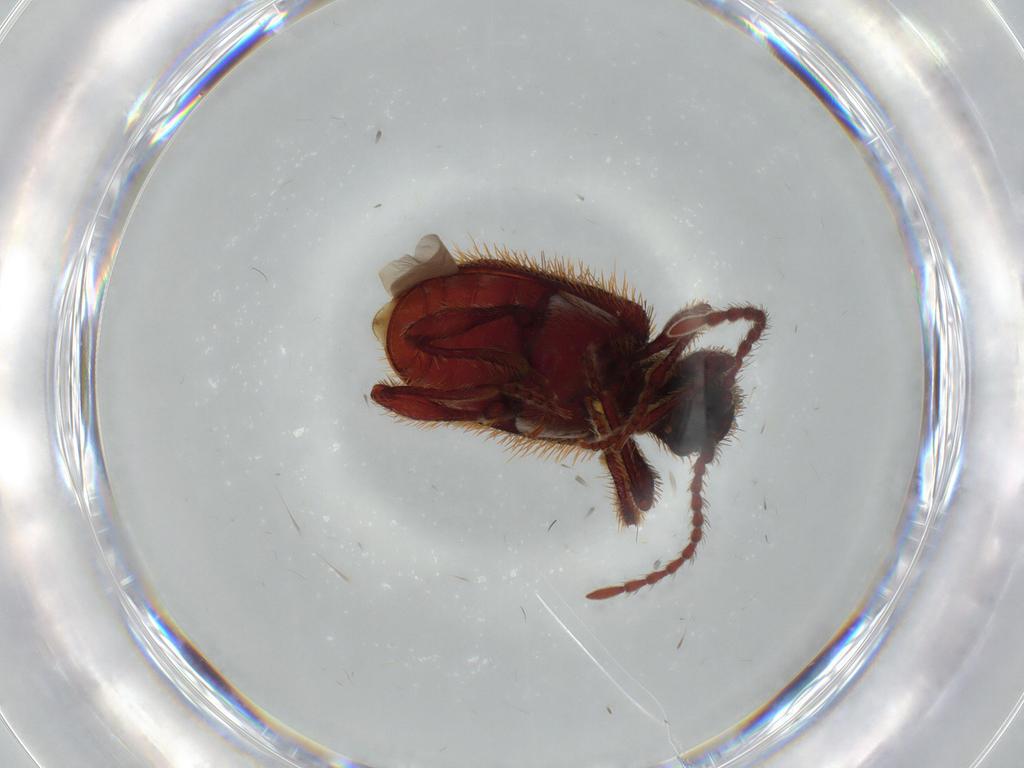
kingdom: Animalia
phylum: Arthropoda
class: Insecta
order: Coleoptera
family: Ptinidae
